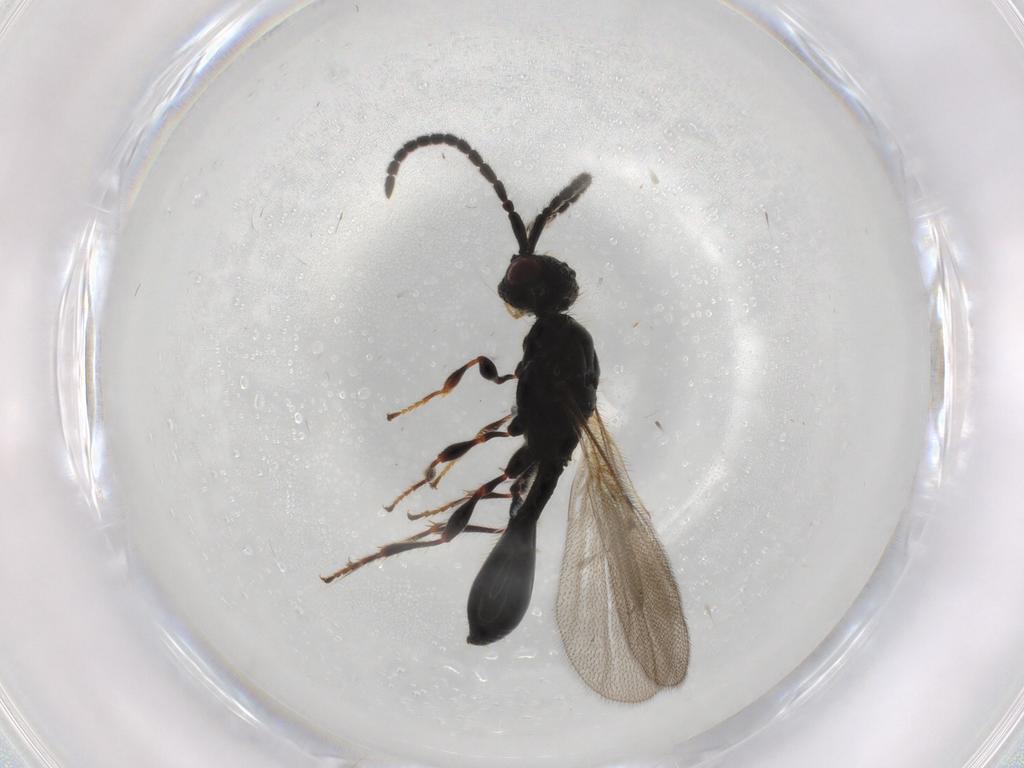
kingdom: Animalia
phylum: Arthropoda
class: Insecta
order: Hymenoptera
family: Diapriidae
